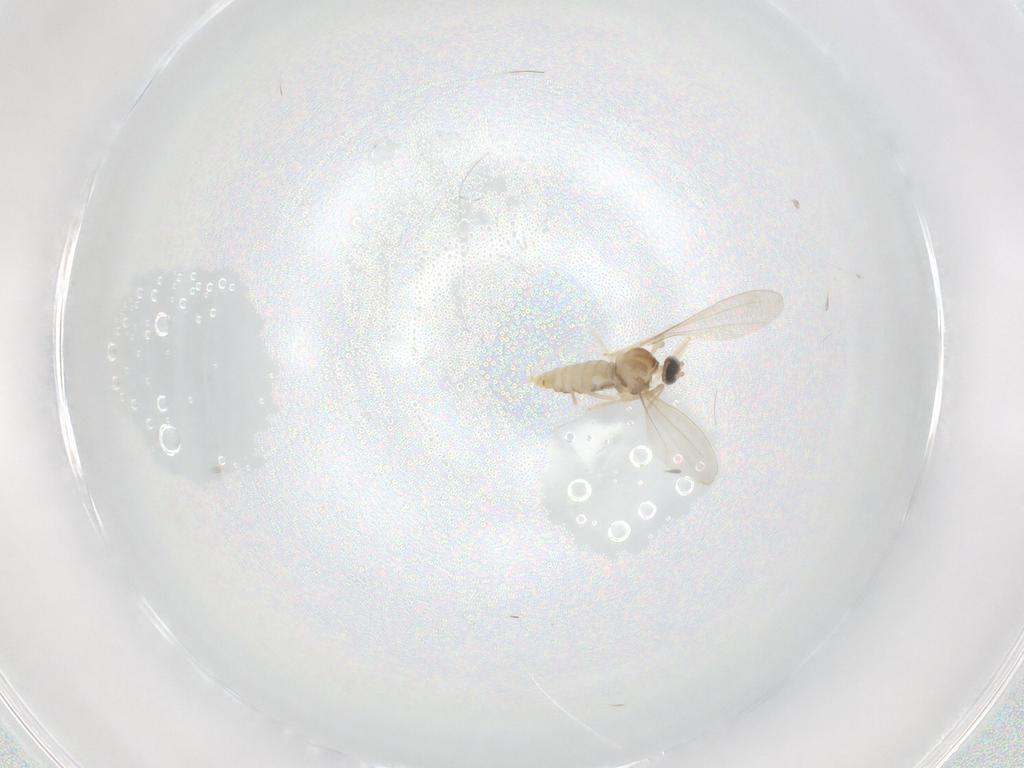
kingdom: Animalia
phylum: Arthropoda
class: Insecta
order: Diptera
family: Cecidomyiidae
